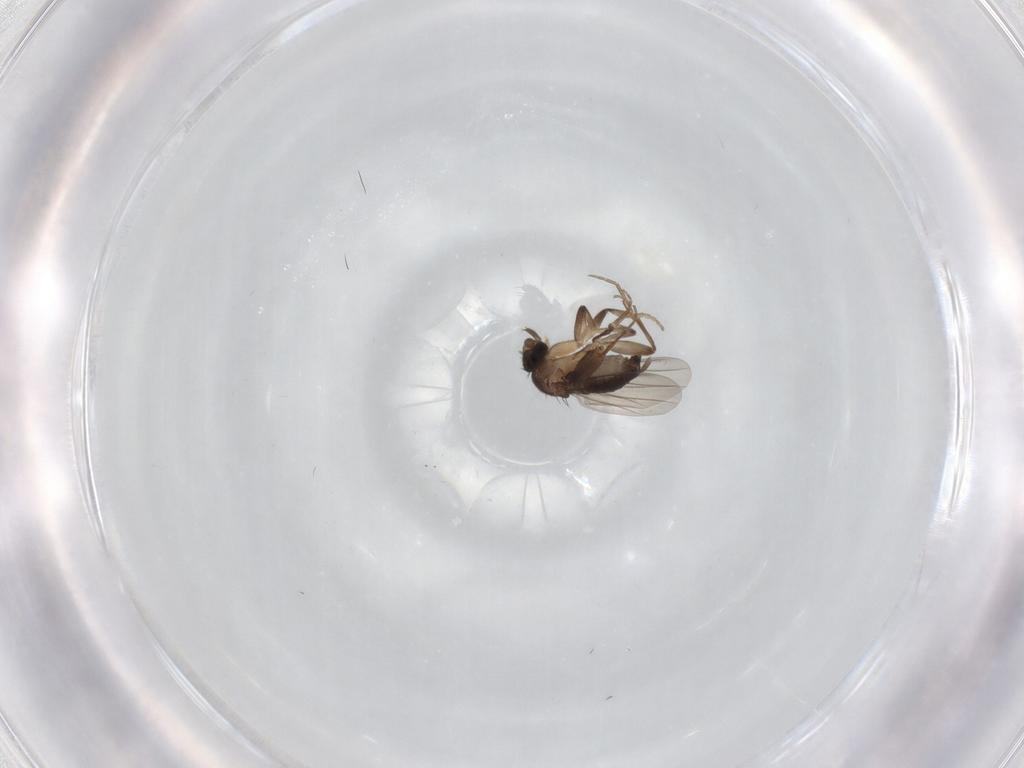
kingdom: Animalia
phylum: Arthropoda
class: Insecta
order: Diptera
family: Phoridae
